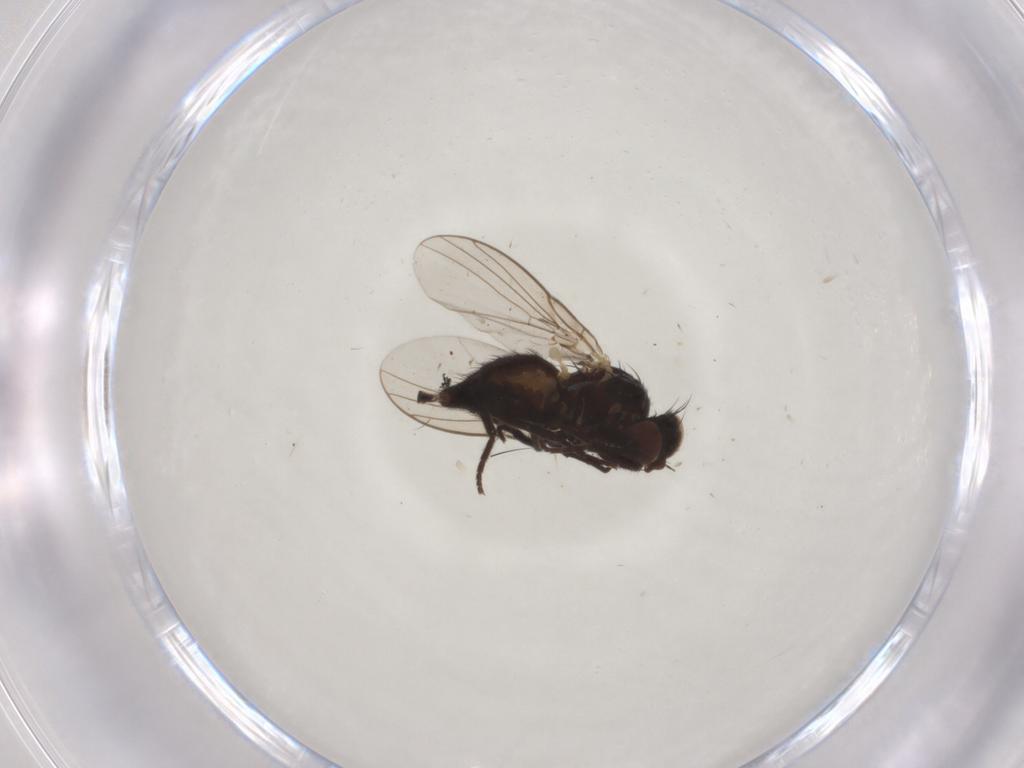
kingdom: Animalia
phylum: Arthropoda
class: Insecta
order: Diptera
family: Agromyzidae
